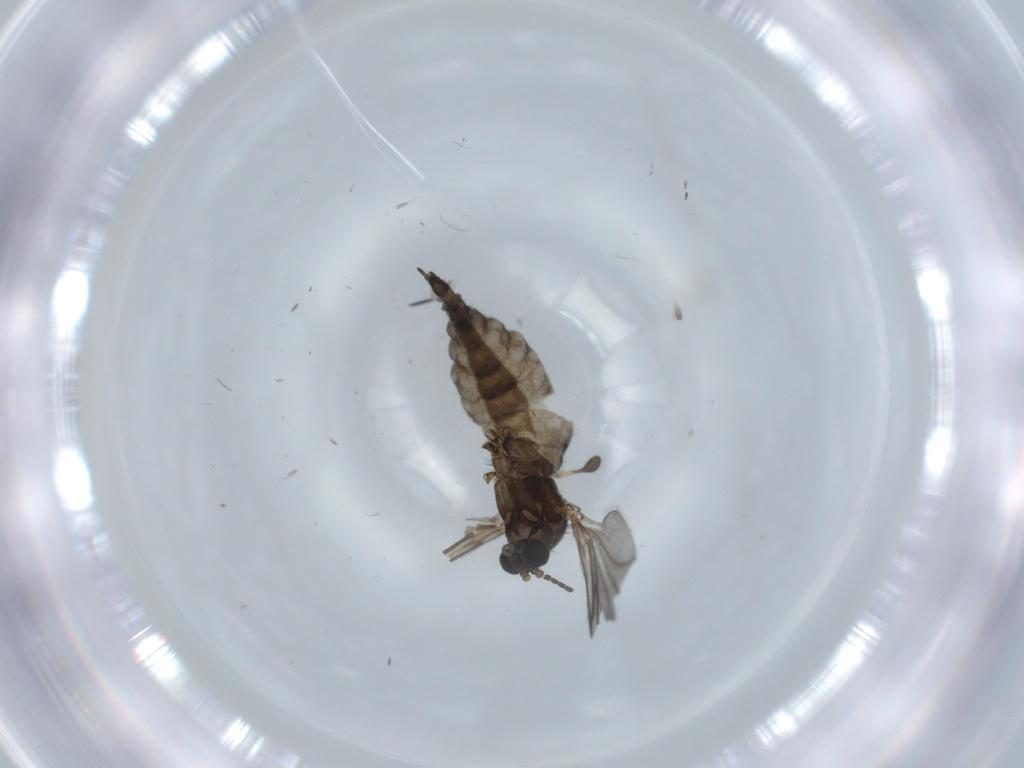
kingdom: Animalia
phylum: Arthropoda
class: Insecta
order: Diptera
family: Sciaridae
